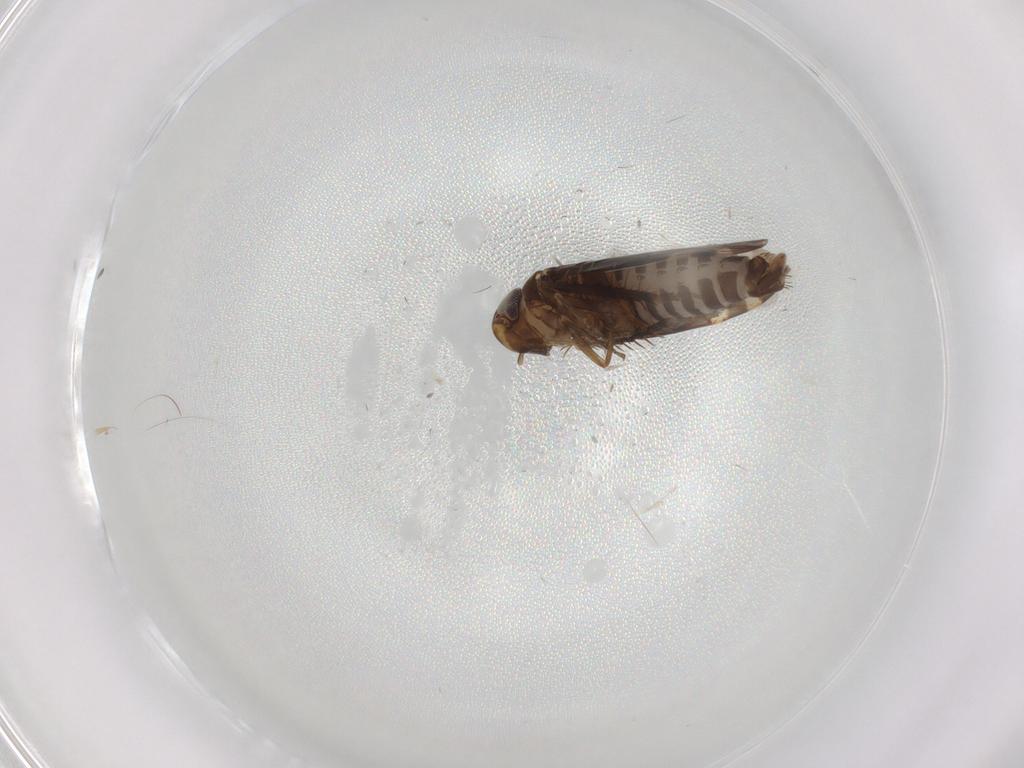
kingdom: Animalia
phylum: Arthropoda
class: Insecta
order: Hemiptera
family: Cicadellidae
